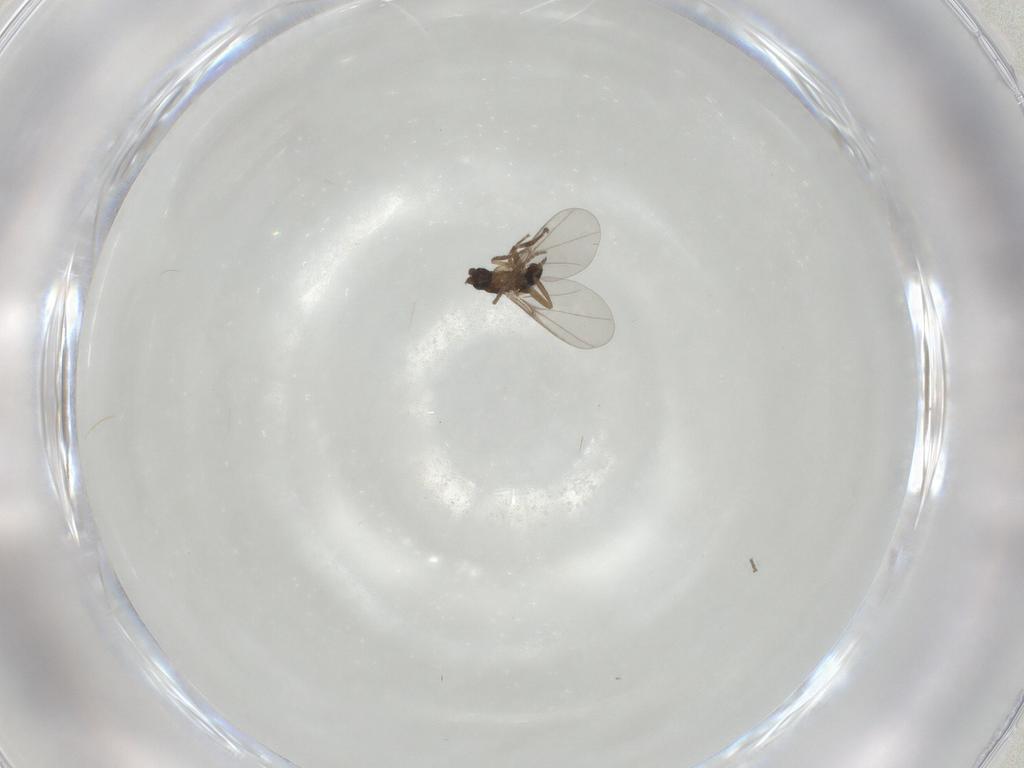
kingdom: Animalia
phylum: Arthropoda
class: Insecta
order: Diptera
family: Phoridae
